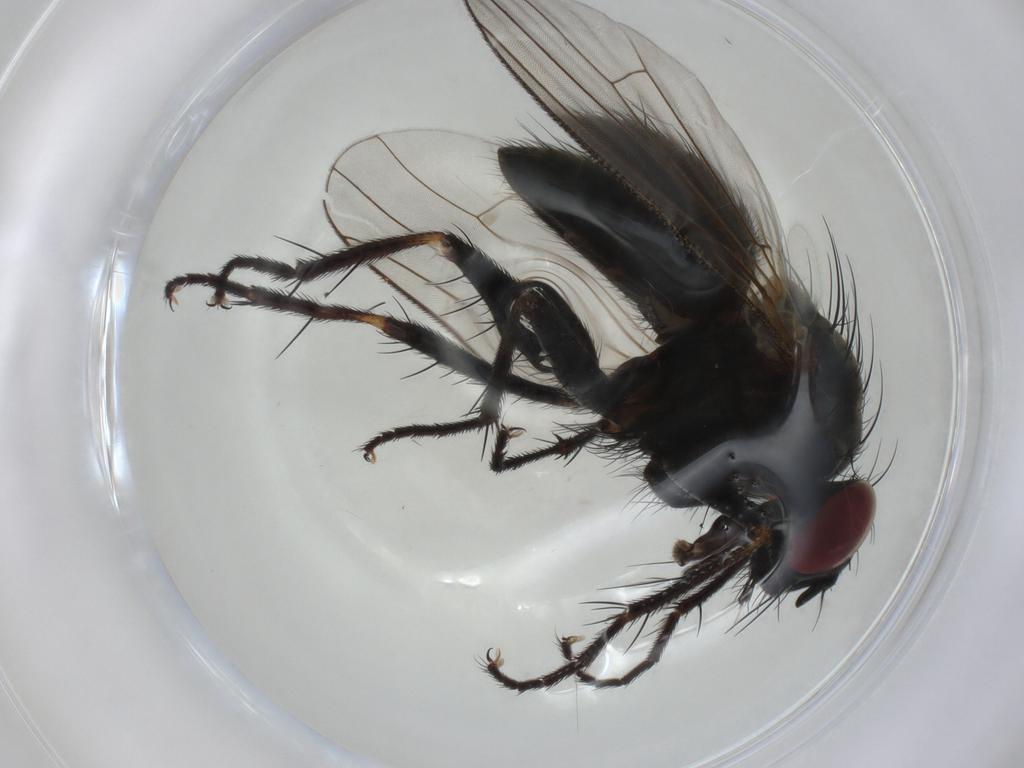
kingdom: Animalia
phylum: Arthropoda
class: Insecta
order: Diptera
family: Muscidae
